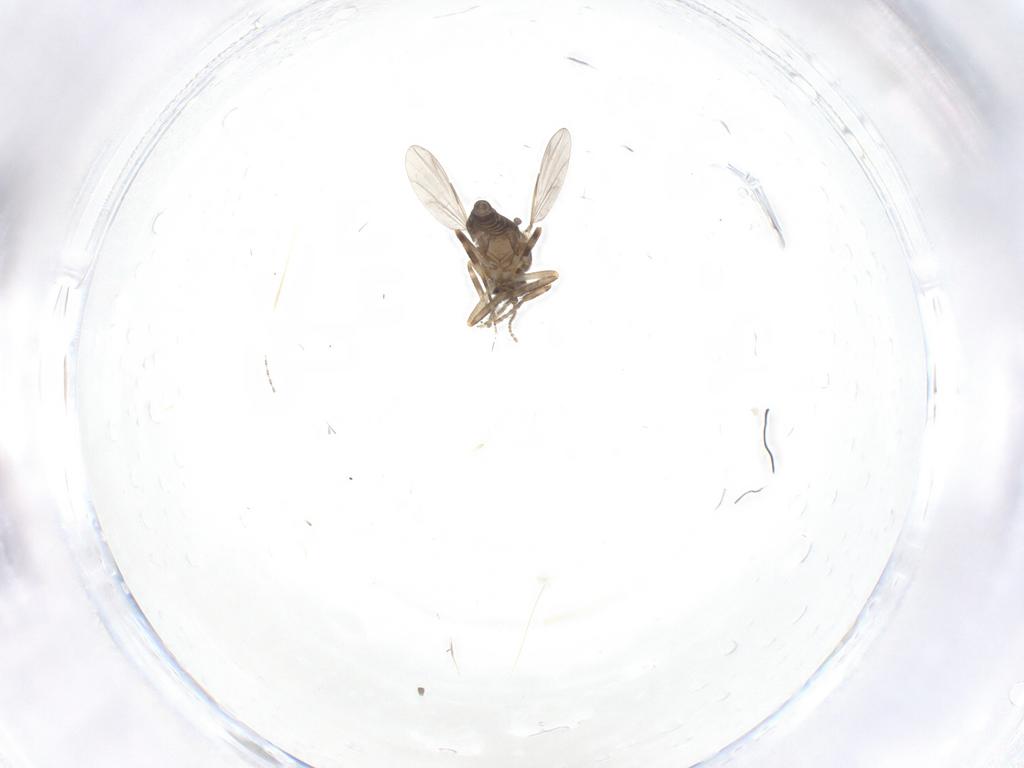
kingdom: Animalia
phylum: Arthropoda
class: Insecta
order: Diptera
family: Ceratopogonidae
